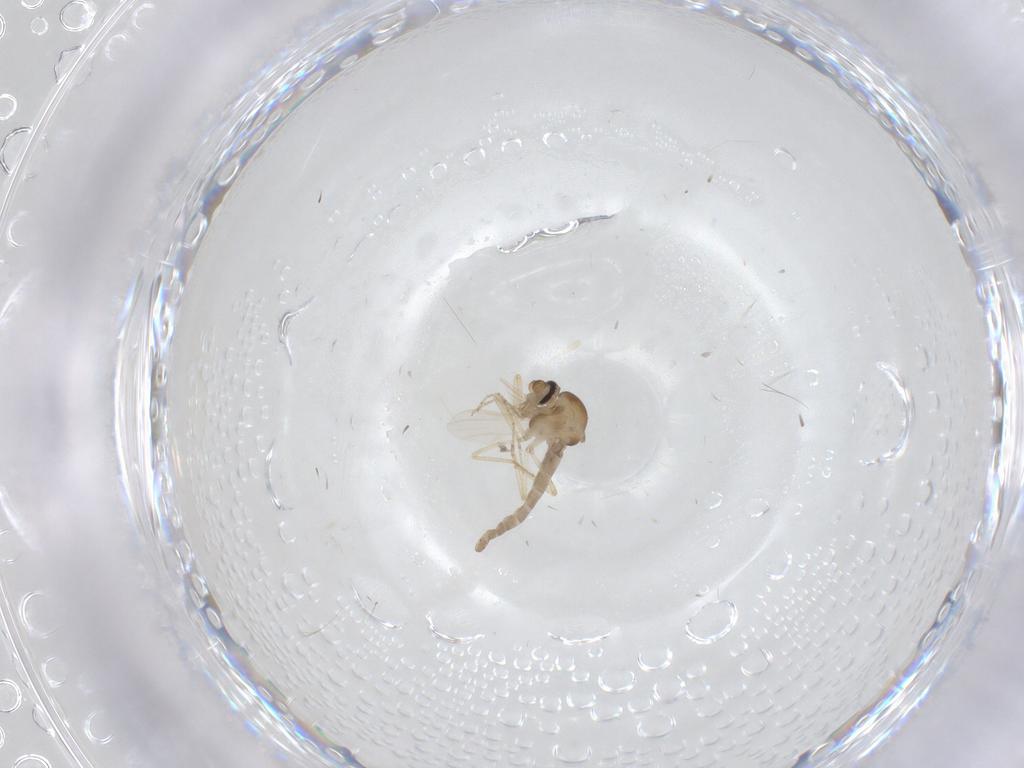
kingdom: Animalia
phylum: Arthropoda
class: Insecta
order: Diptera
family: Ceratopogonidae
